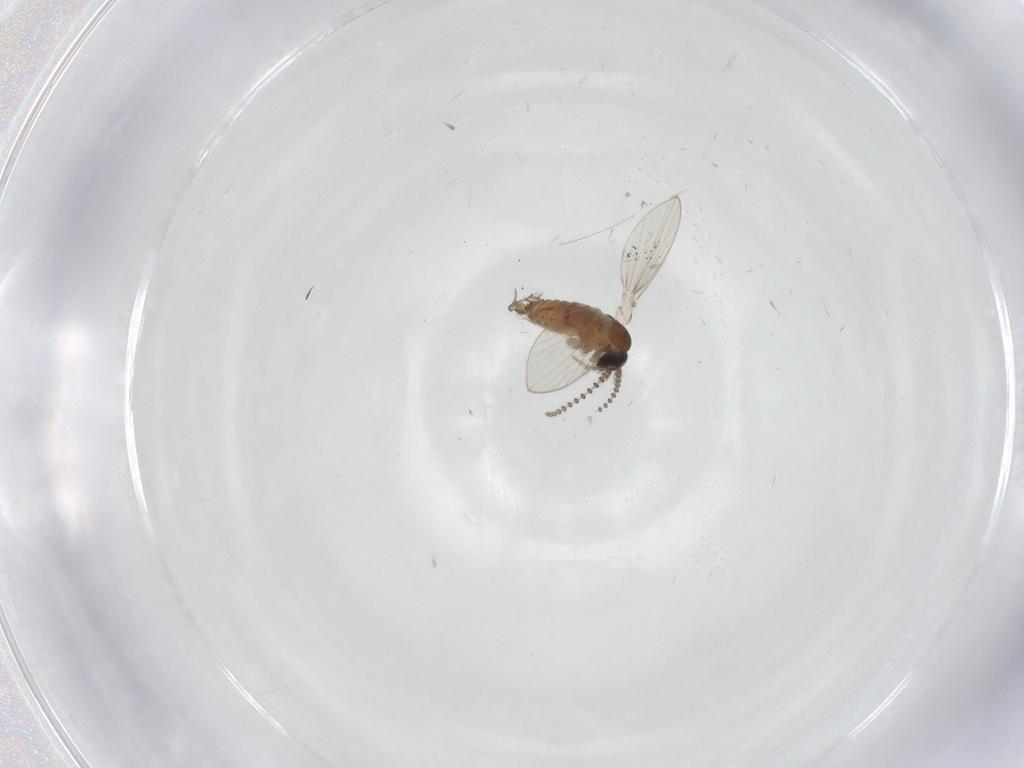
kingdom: Animalia
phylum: Arthropoda
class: Insecta
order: Diptera
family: Psychodidae
